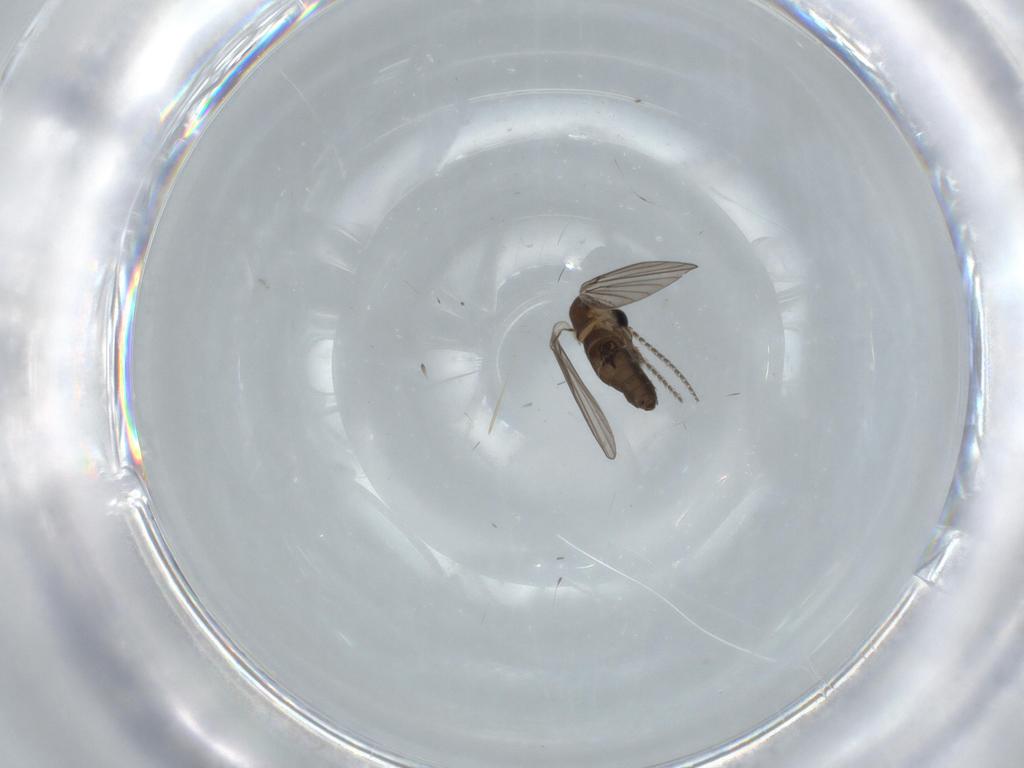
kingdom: Animalia
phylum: Arthropoda
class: Insecta
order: Diptera
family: Psychodidae
